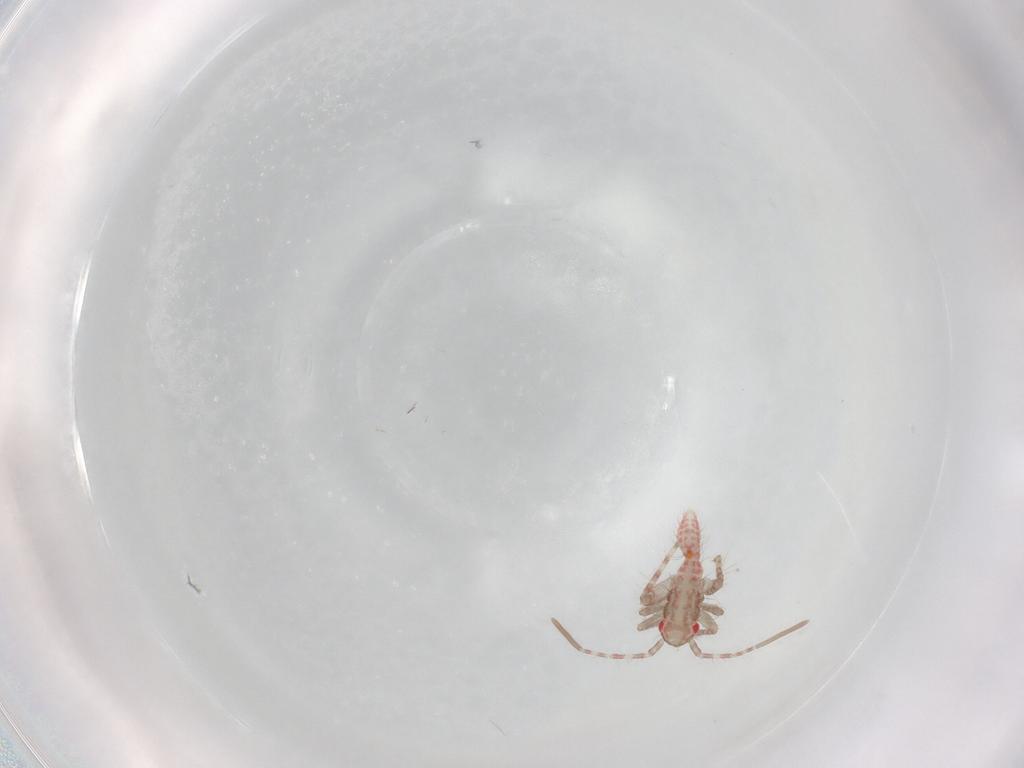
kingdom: Animalia
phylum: Arthropoda
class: Insecta
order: Hemiptera
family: Miridae
